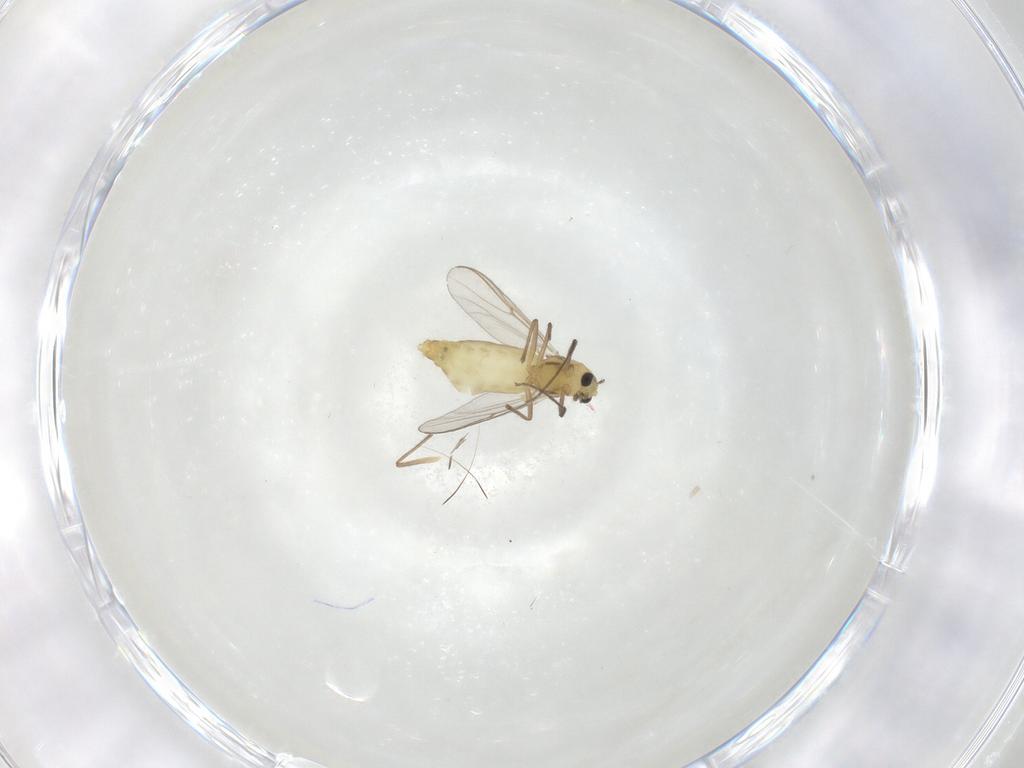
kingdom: Animalia
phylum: Arthropoda
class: Insecta
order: Diptera
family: Chironomidae
